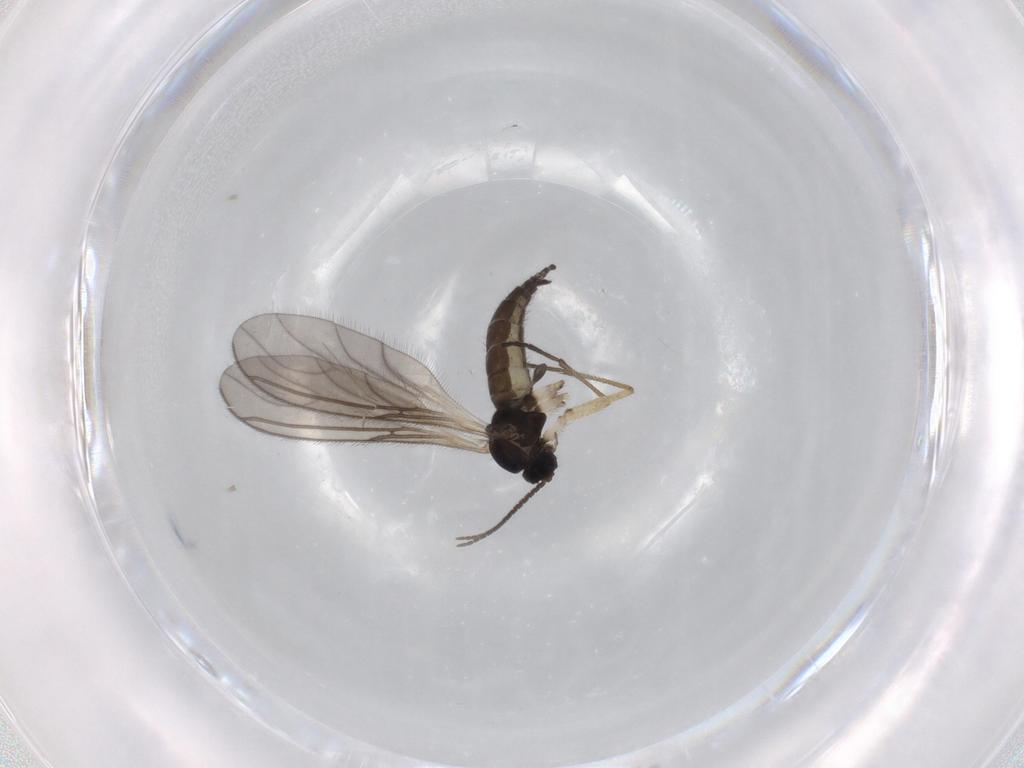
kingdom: Animalia
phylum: Arthropoda
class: Insecta
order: Diptera
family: Sciaridae
